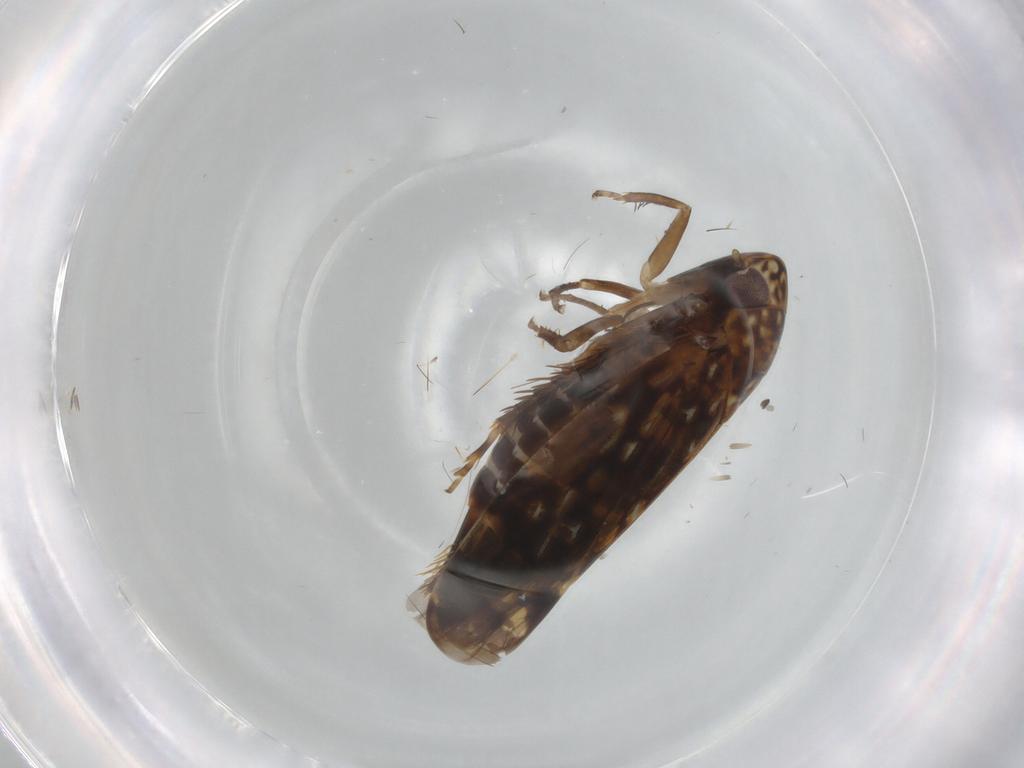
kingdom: Animalia
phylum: Arthropoda
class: Insecta
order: Hemiptera
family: Cicadellidae
